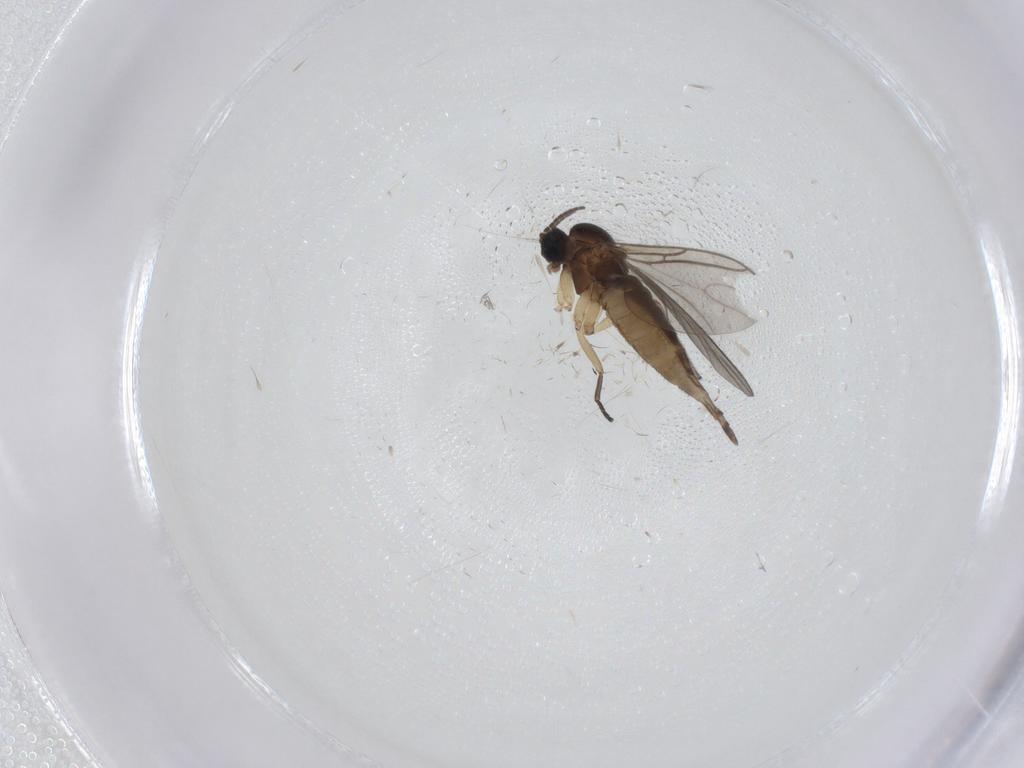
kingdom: Animalia
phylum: Arthropoda
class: Insecta
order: Diptera
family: Sciaridae
